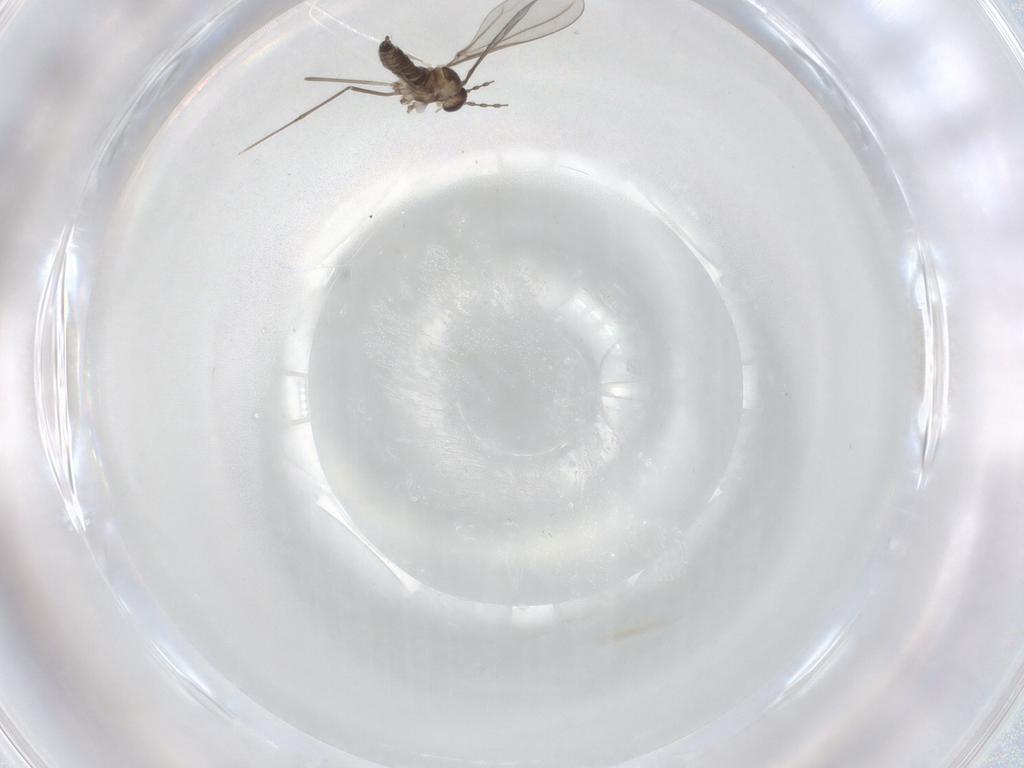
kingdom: Animalia
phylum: Arthropoda
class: Insecta
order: Diptera
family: Cecidomyiidae
